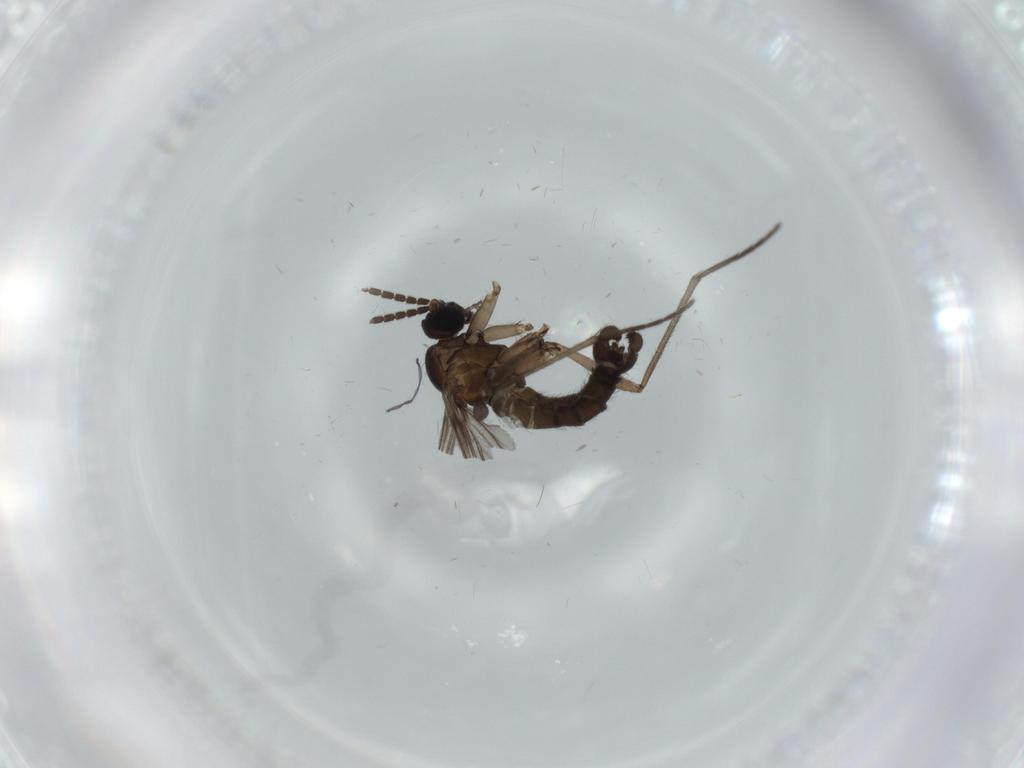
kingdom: Animalia
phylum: Arthropoda
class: Insecta
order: Diptera
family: Sciaridae
